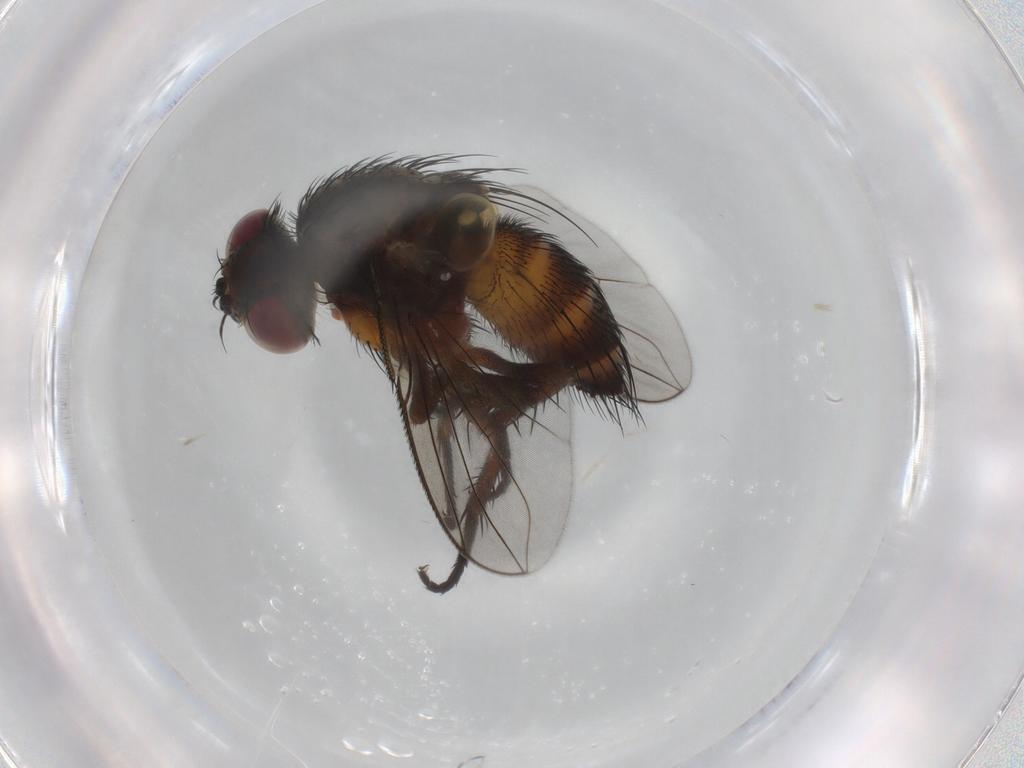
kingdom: Animalia
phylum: Arthropoda
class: Insecta
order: Diptera
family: Tachinidae
